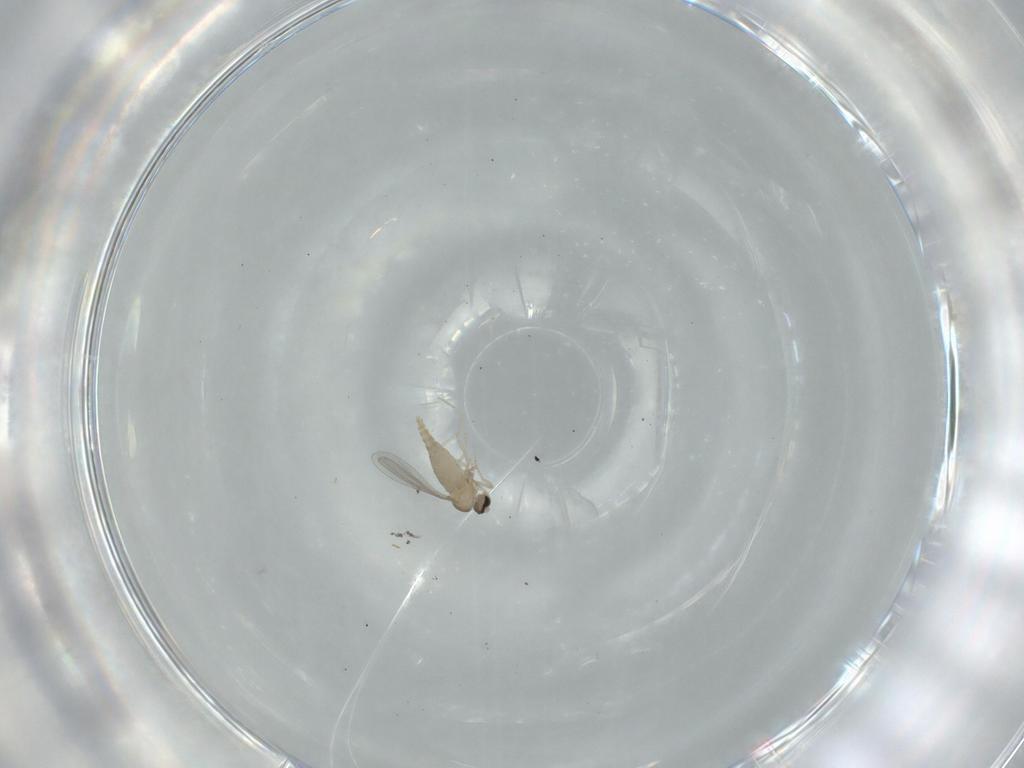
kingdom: Animalia
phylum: Arthropoda
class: Insecta
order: Diptera
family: Cecidomyiidae
